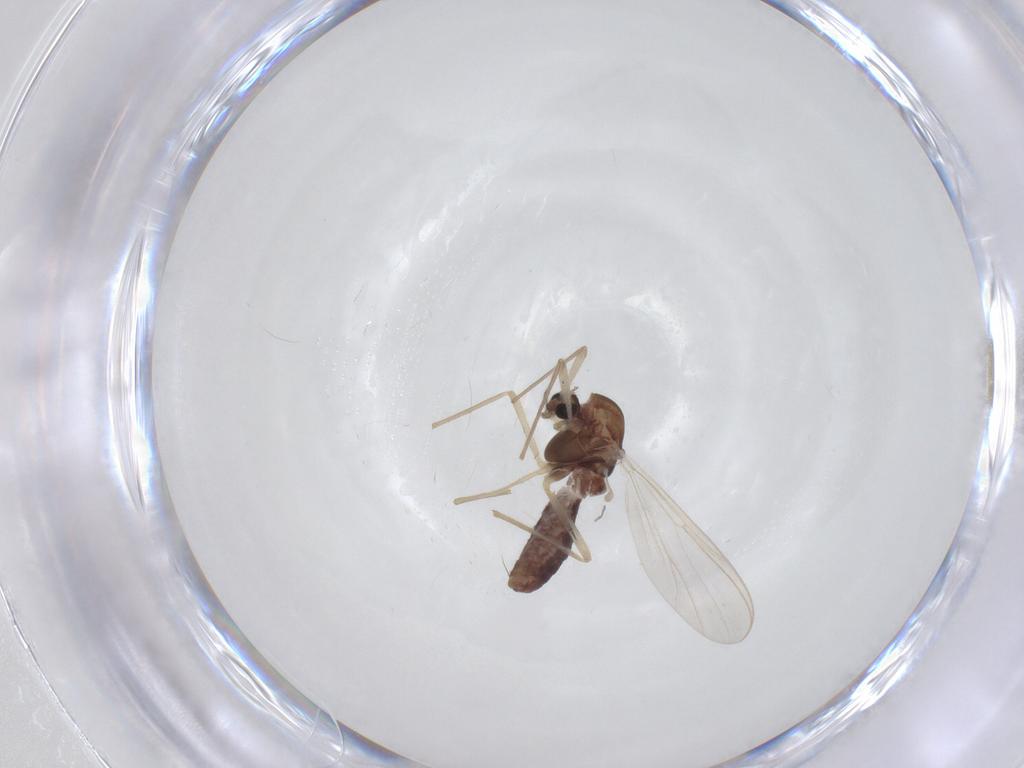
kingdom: Animalia
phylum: Arthropoda
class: Insecta
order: Diptera
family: Chironomidae
